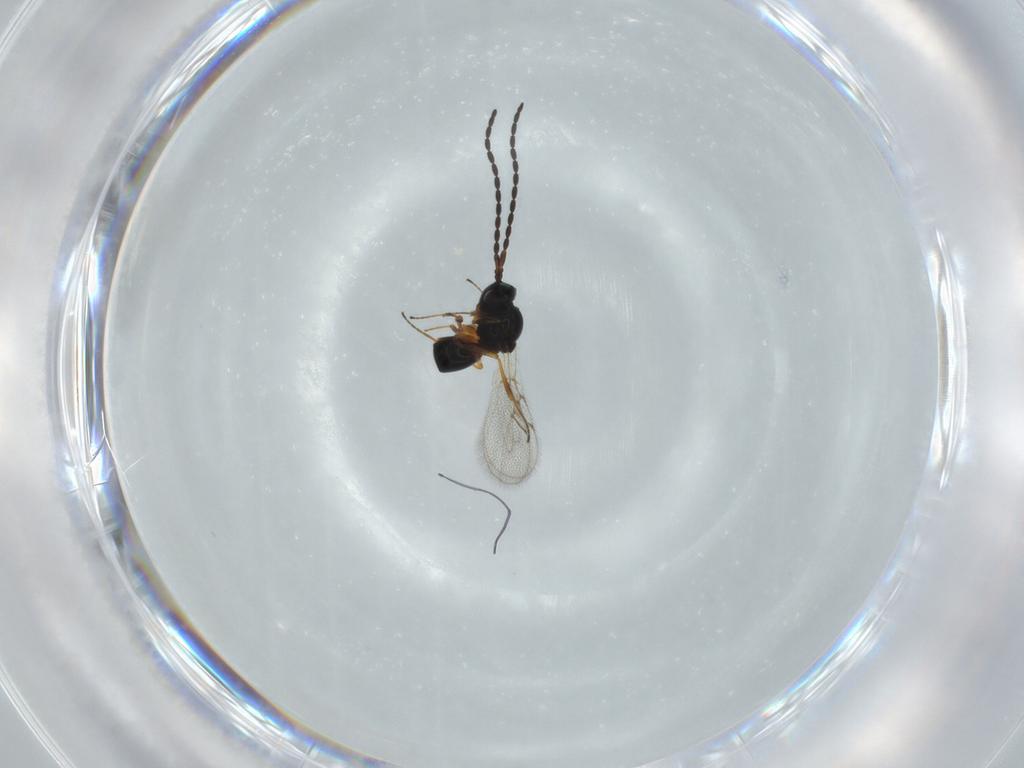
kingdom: Animalia
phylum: Arthropoda
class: Insecta
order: Hymenoptera
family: Figitidae
